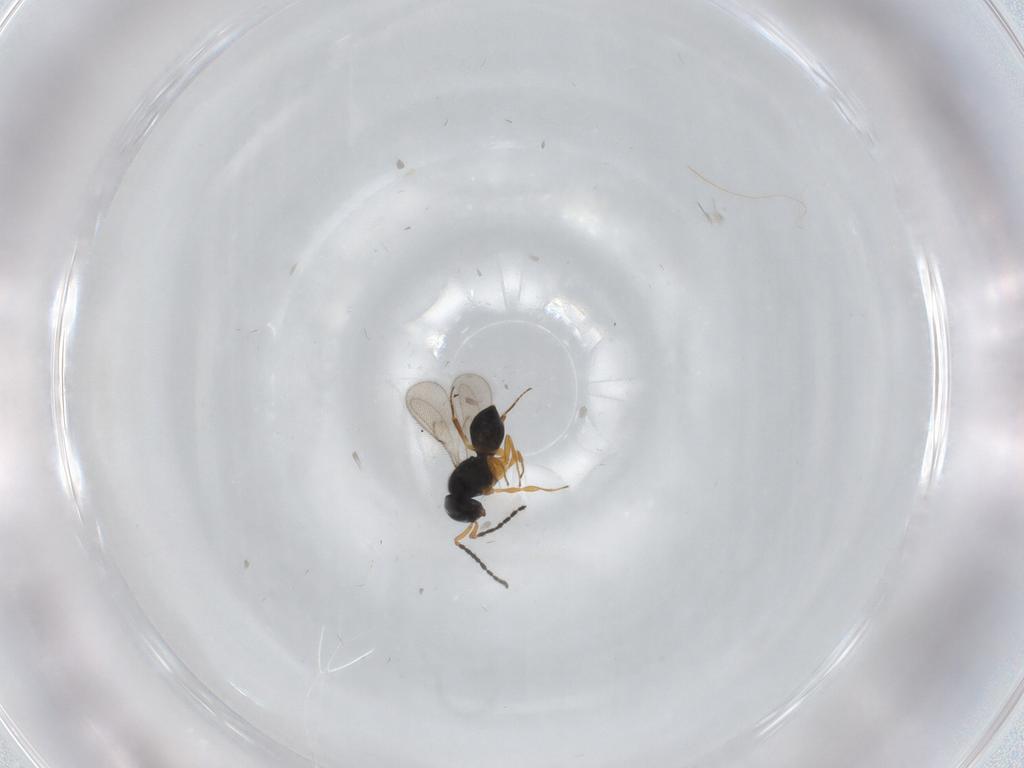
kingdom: Animalia
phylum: Arthropoda
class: Insecta
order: Hymenoptera
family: Scelionidae
